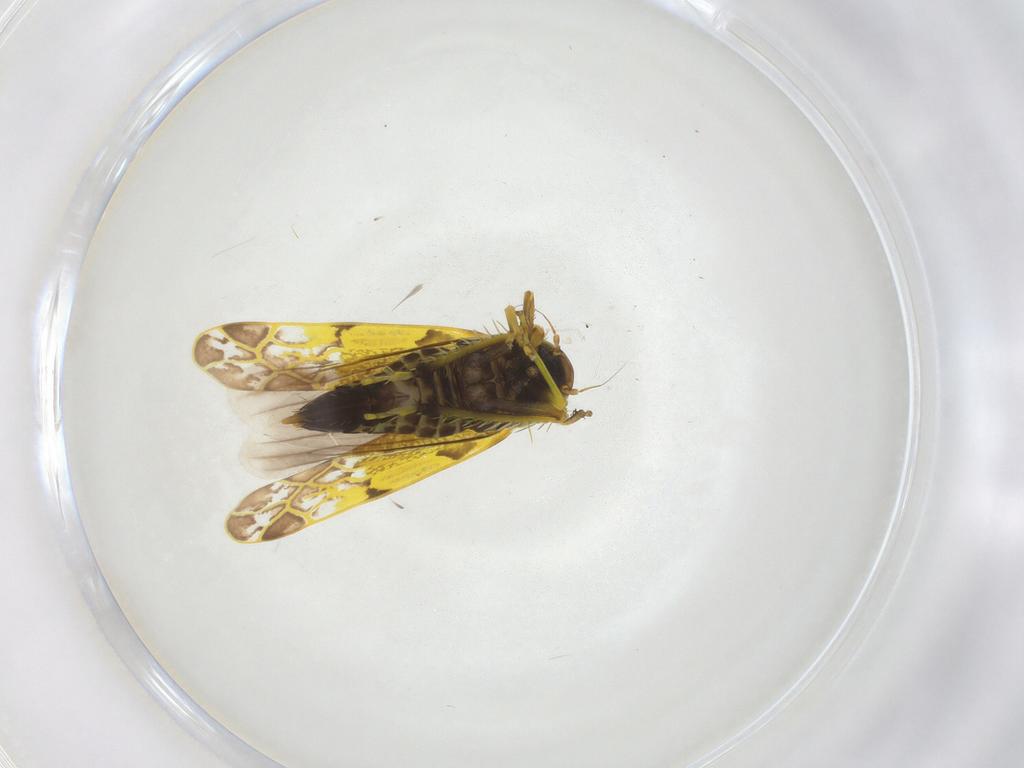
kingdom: Animalia
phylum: Arthropoda
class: Insecta
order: Hemiptera
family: Cicadellidae
